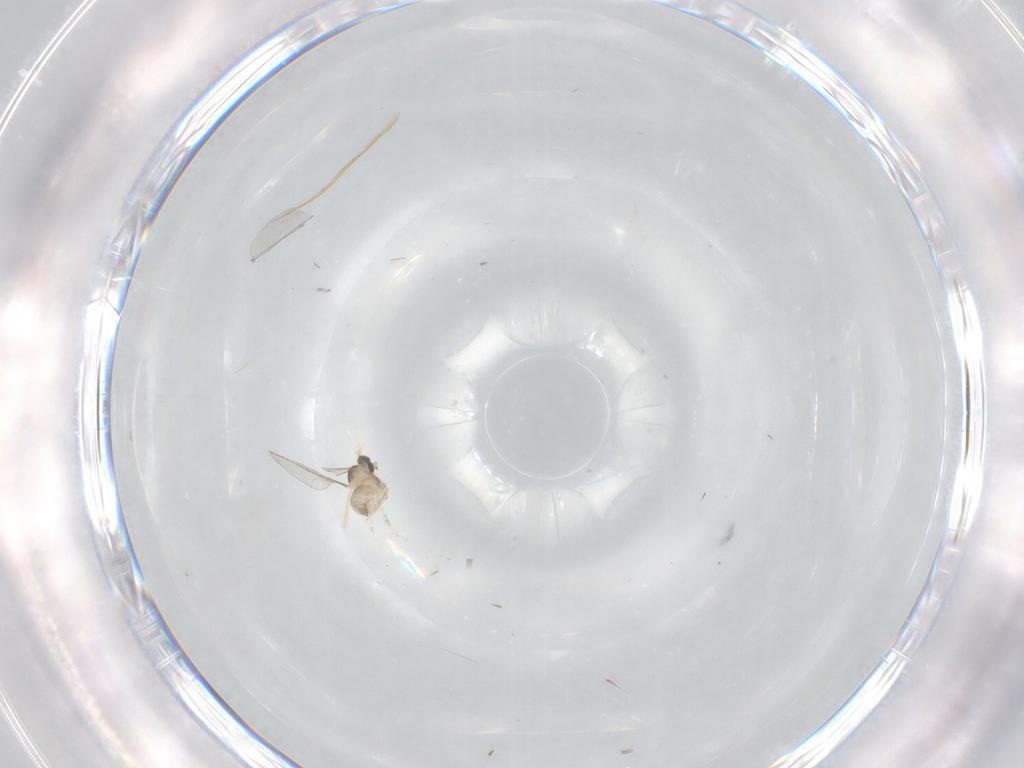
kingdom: Animalia
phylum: Arthropoda
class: Insecta
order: Diptera
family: Cecidomyiidae
